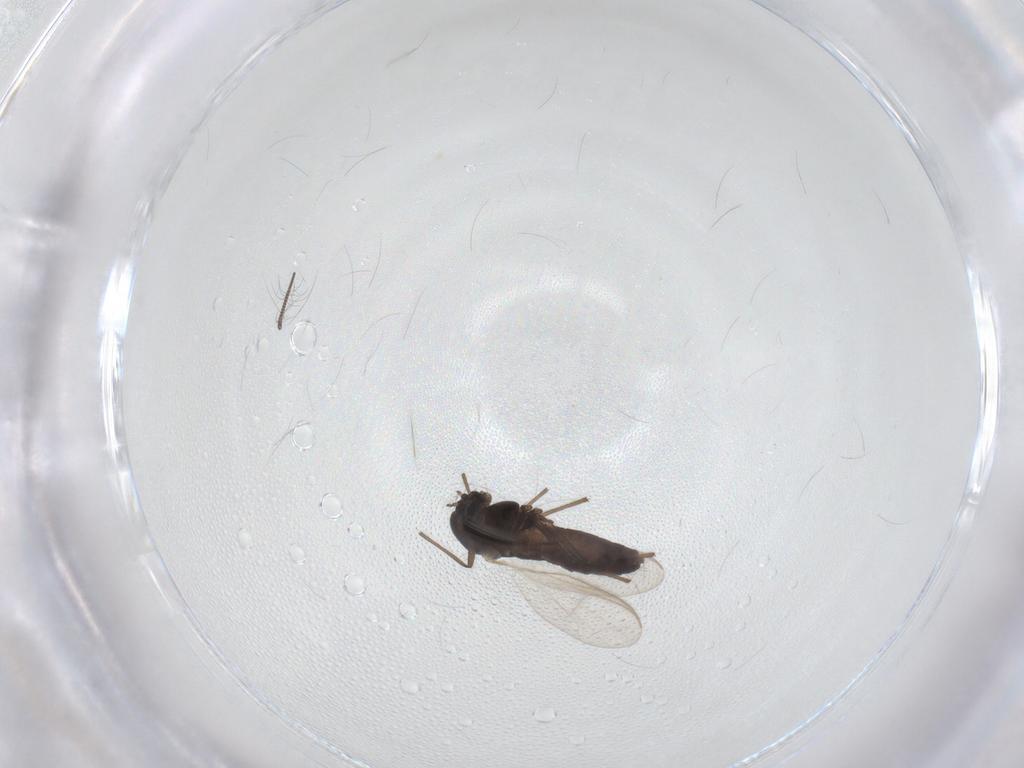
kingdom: Animalia
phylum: Arthropoda
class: Insecta
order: Diptera
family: Chironomidae
